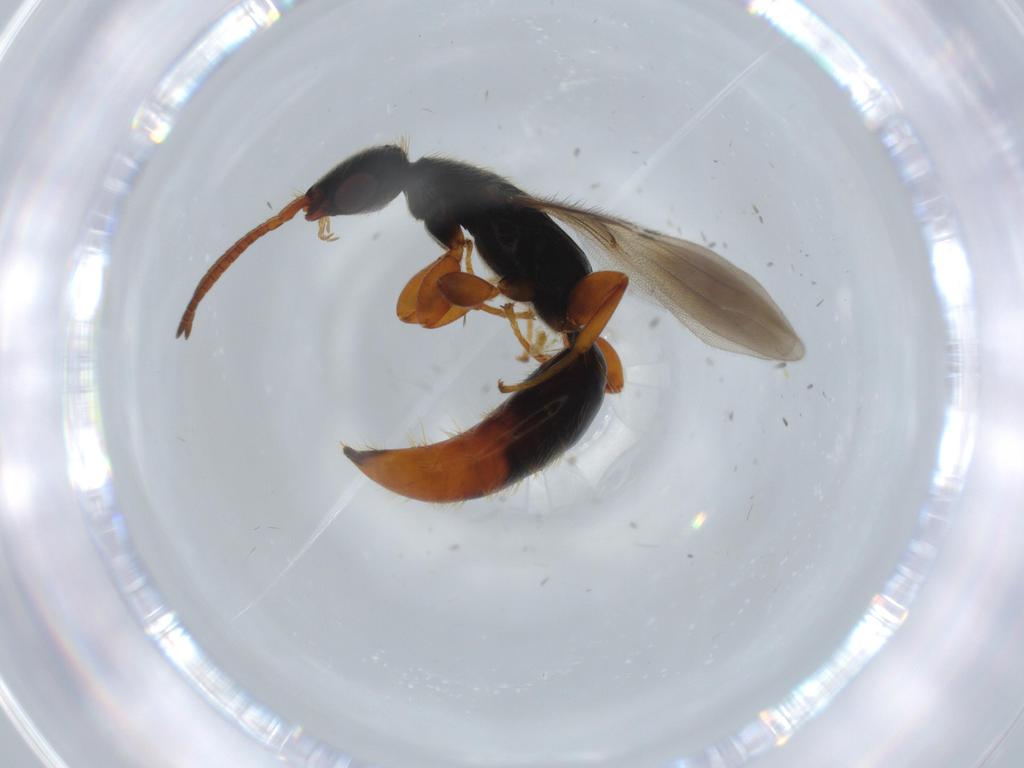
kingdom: Animalia
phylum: Arthropoda
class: Insecta
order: Hymenoptera
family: Bethylidae
